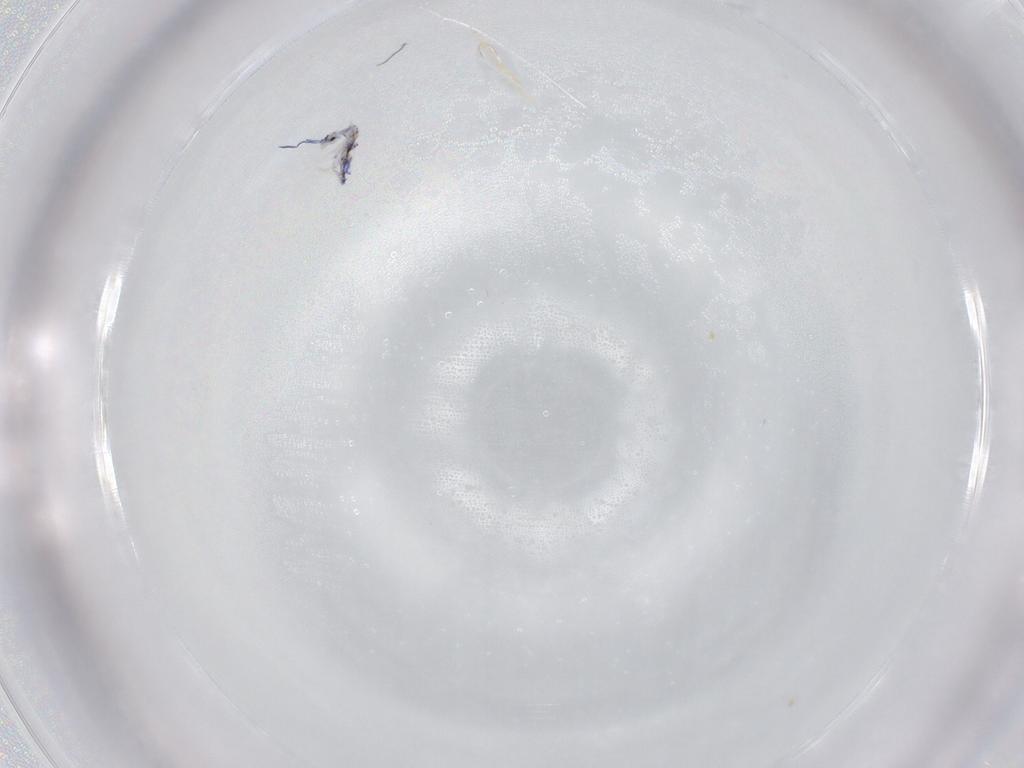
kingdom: Animalia
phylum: Arthropoda
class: Collembola
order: Entomobryomorpha
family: Entomobryidae
